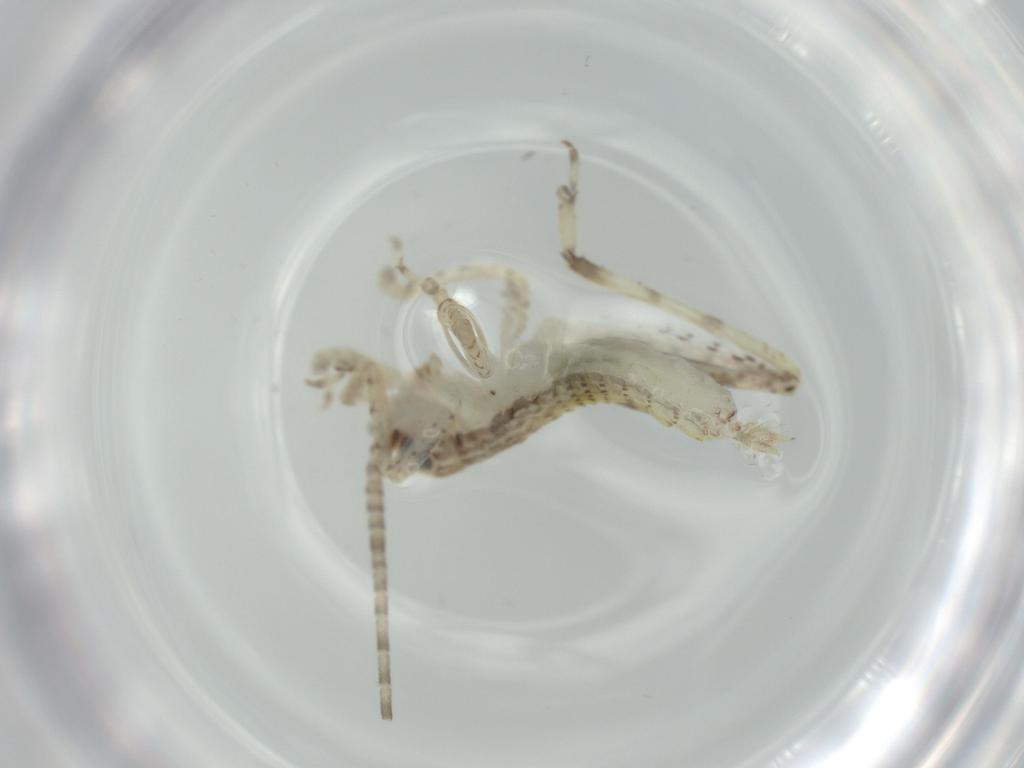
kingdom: Animalia
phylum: Arthropoda
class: Insecta
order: Orthoptera
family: Gryllidae
